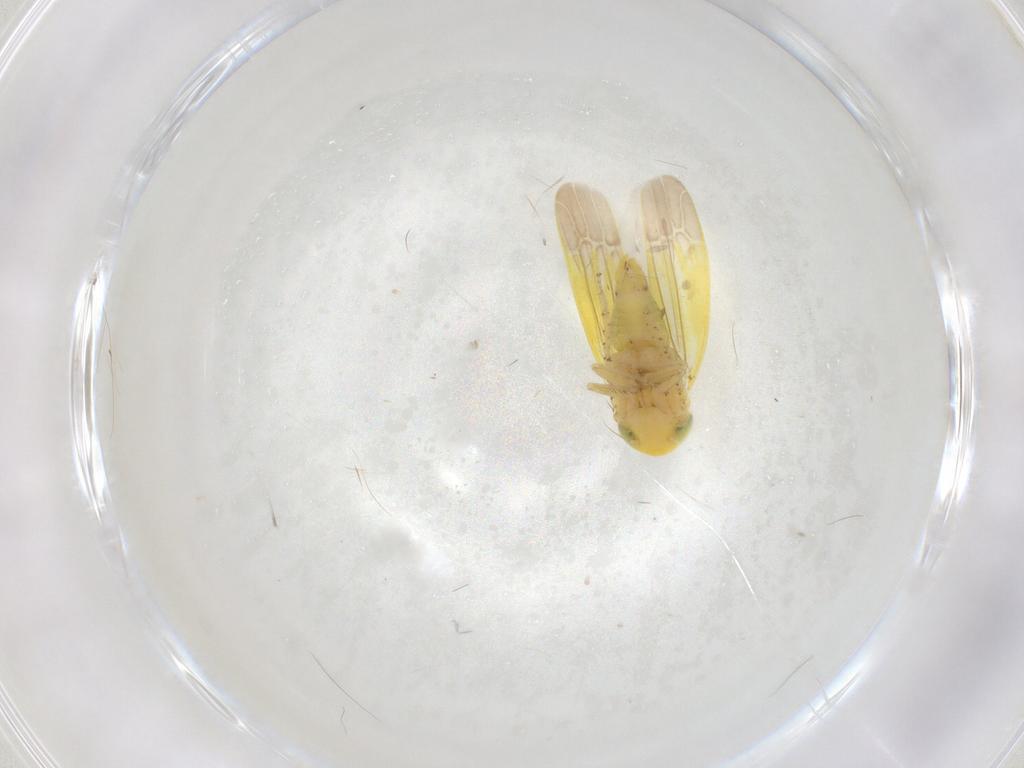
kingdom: Animalia
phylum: Arthropoda
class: Insecta
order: Hemiptera
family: Cicadellidae
